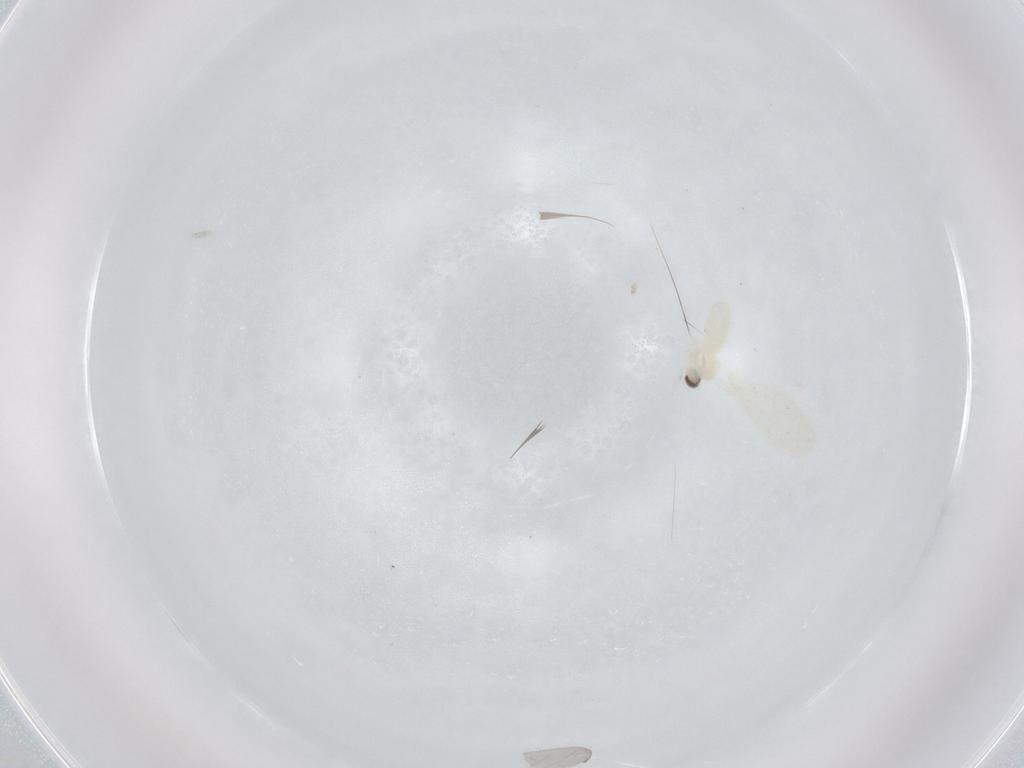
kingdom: Animalia
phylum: Arthropoda
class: Insecta
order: Diptera
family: Cecidomyiidae
